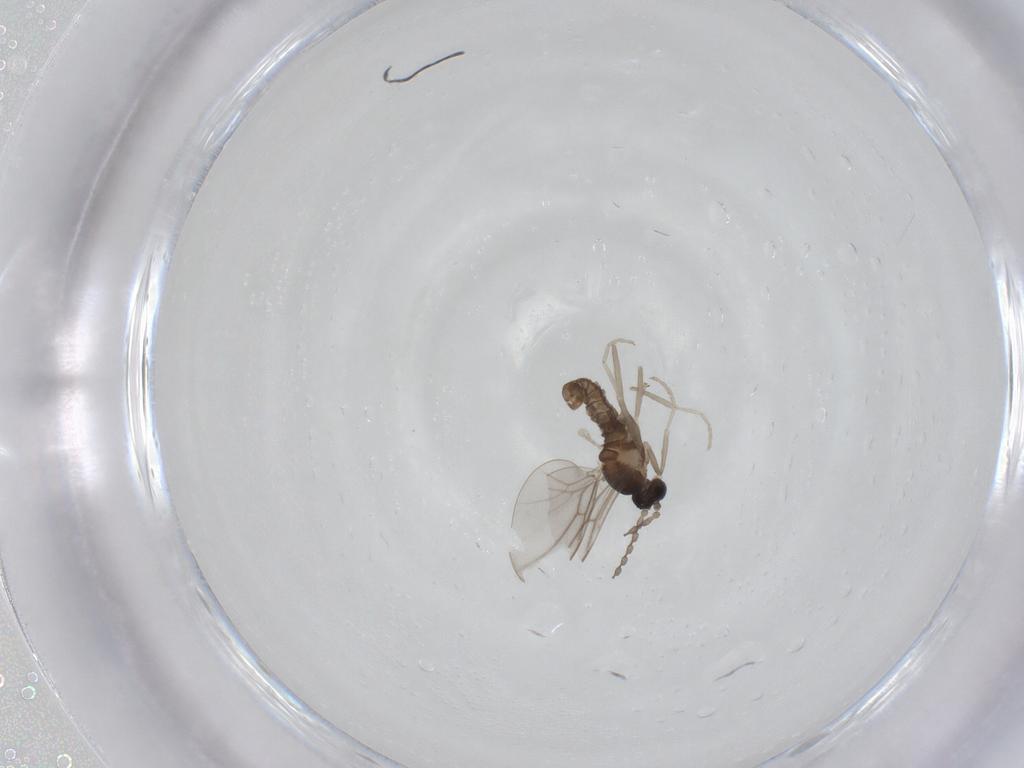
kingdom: Animalia
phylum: Arthropoda
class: Insecta
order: Diptera
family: Cecidomyiidae
